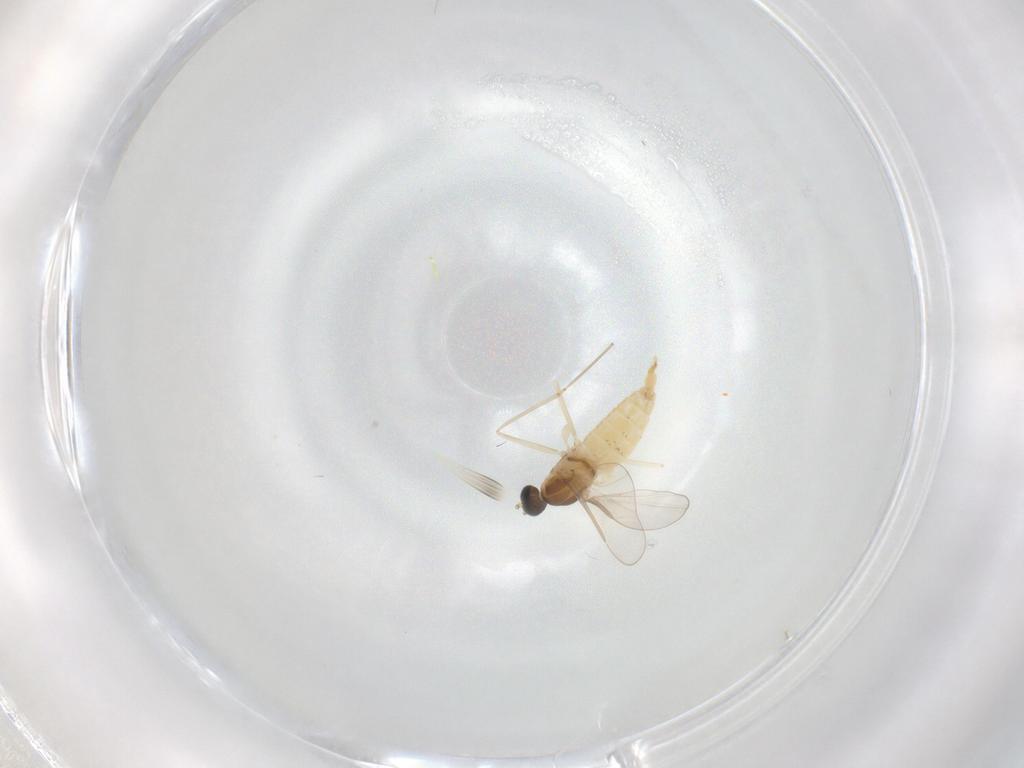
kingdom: Animalia
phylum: Arthropoda
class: Insecta
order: Diptera
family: Cecidomyiidae
